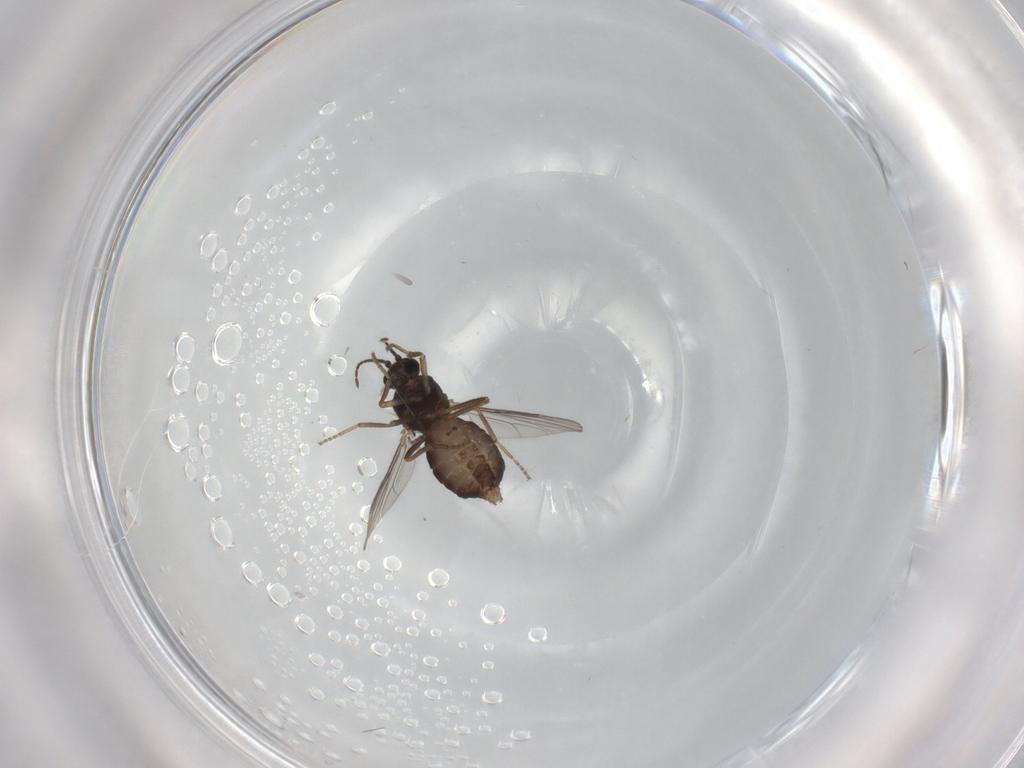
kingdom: Animalia
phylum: Arthropoda
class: Insecta
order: Diptera
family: Ceratopogonidae
